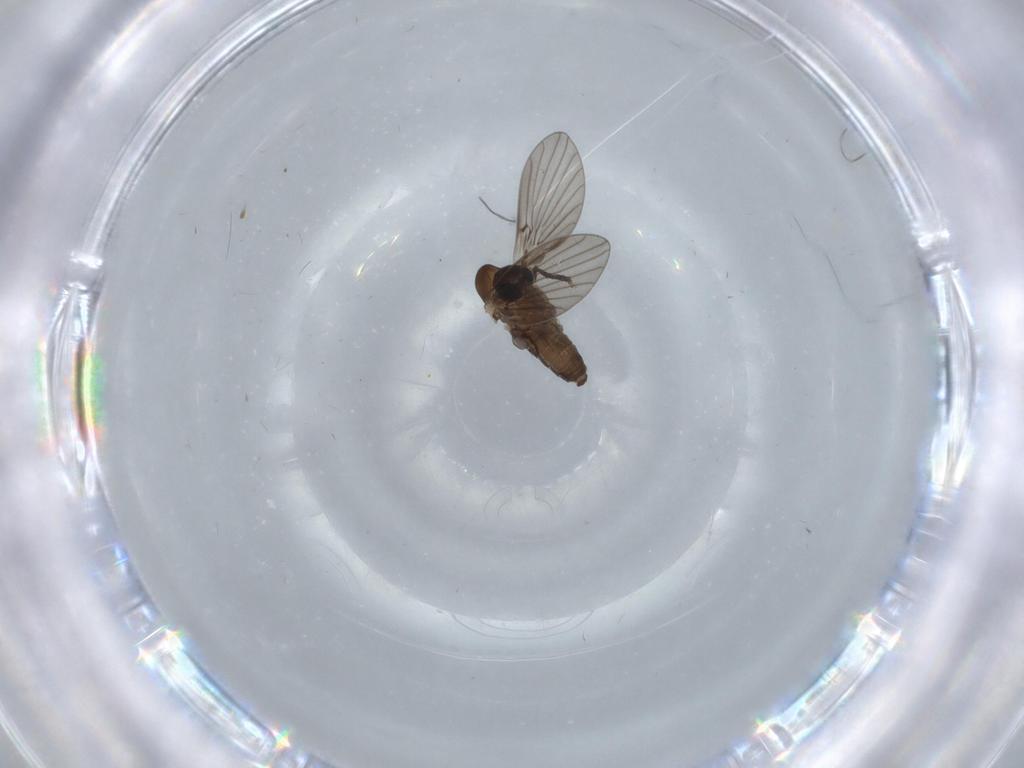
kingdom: Animalia
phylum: Arthropoda
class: Insecta
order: Diptera
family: Psychodidae
